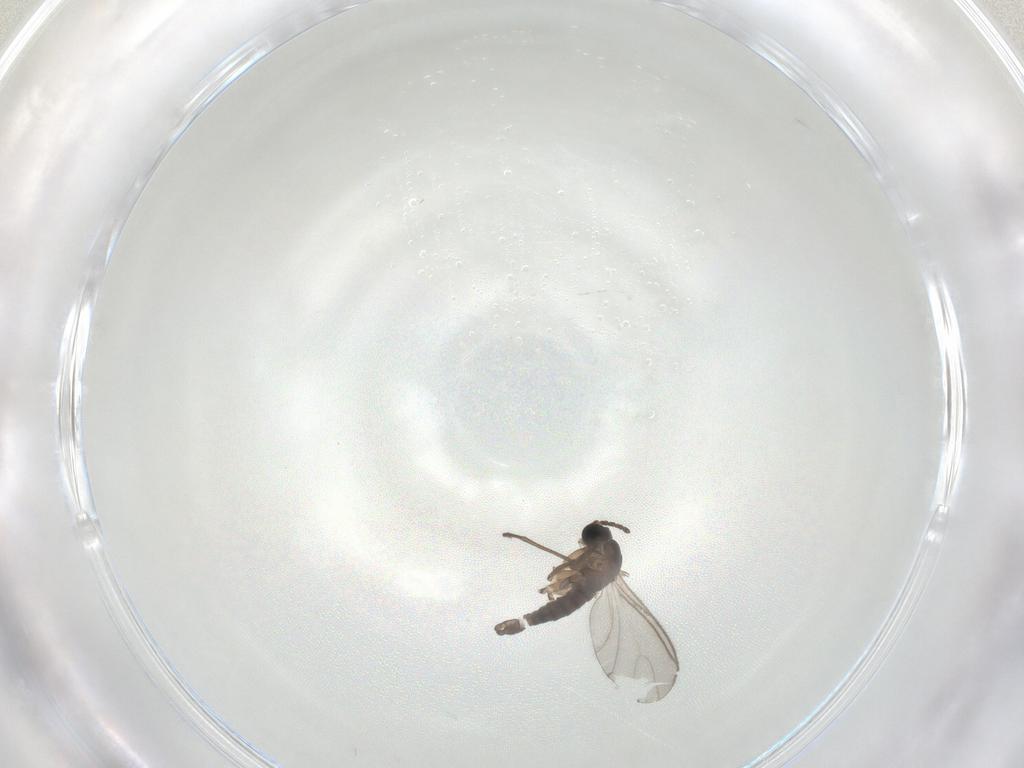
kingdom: Animalia
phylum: Arthropoda
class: Insecta
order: Diptera
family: Sciaridae
